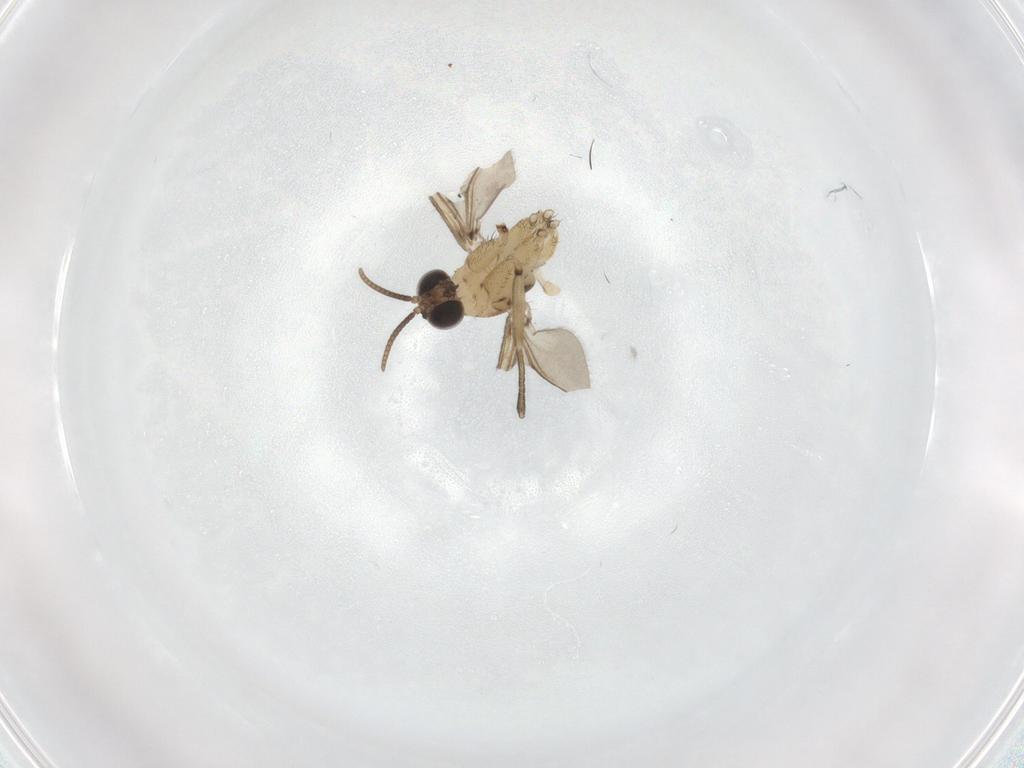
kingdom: Animalia
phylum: Arthropoda
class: Insecta
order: Diptera
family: Keroplatidae
